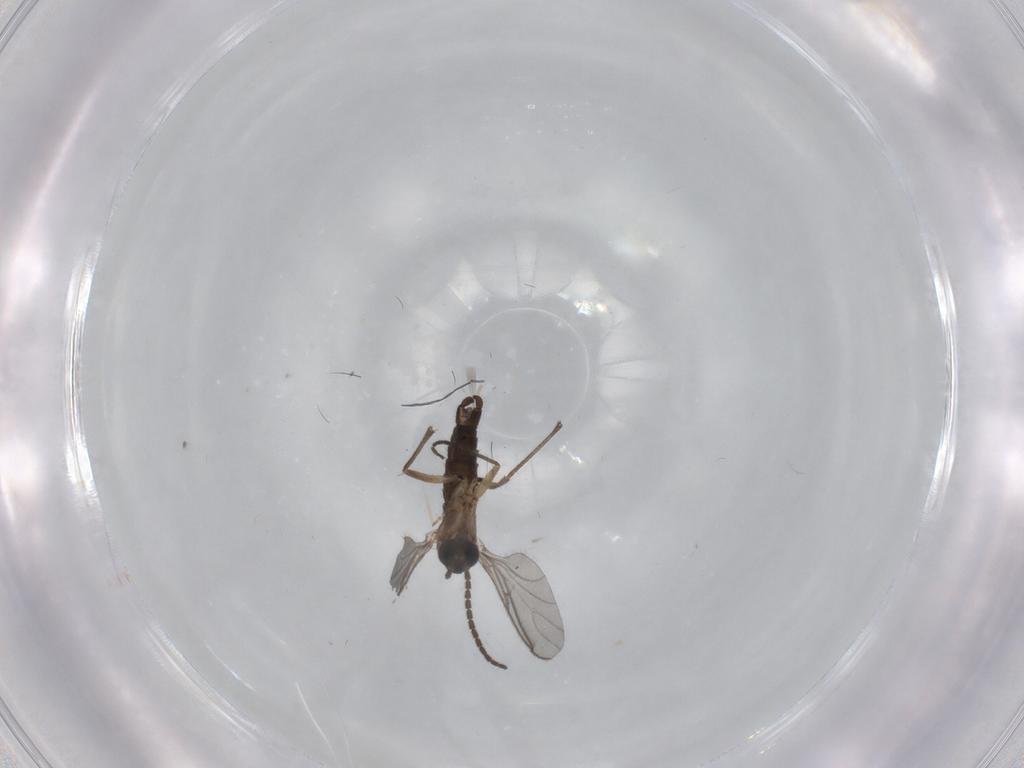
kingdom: Animalia
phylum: Arthropoda
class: Insecta
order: Diptera
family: Sciaridae
